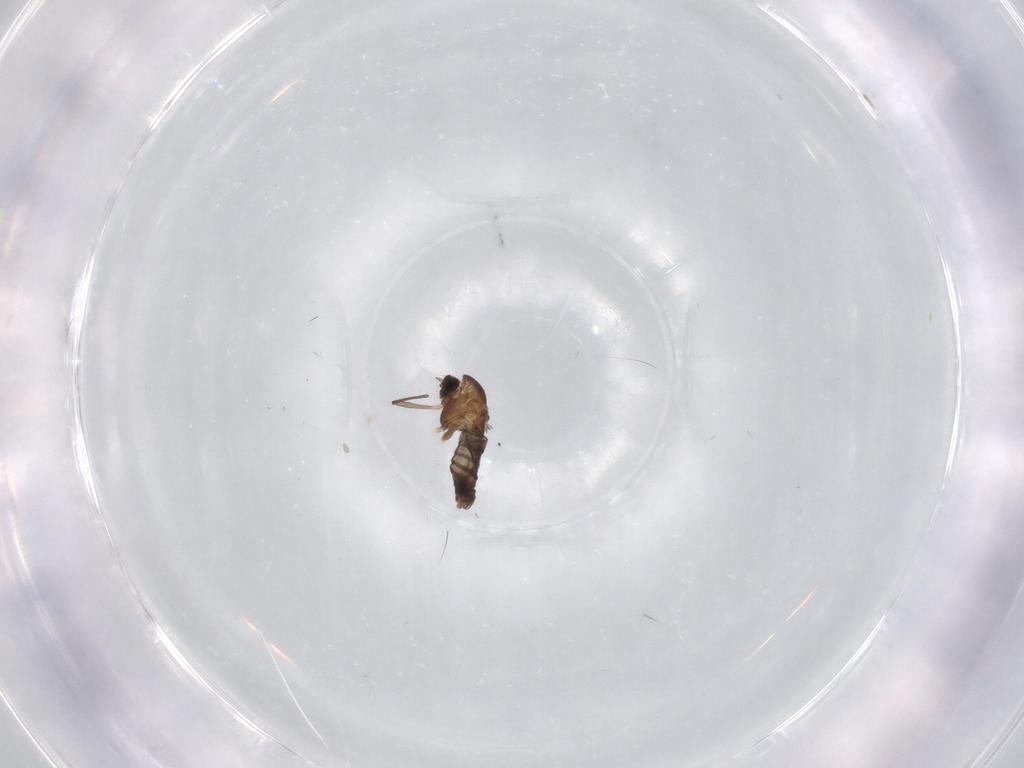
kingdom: Animalia
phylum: Arthropoda
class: Insecta
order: Diptera
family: Chironomidae
